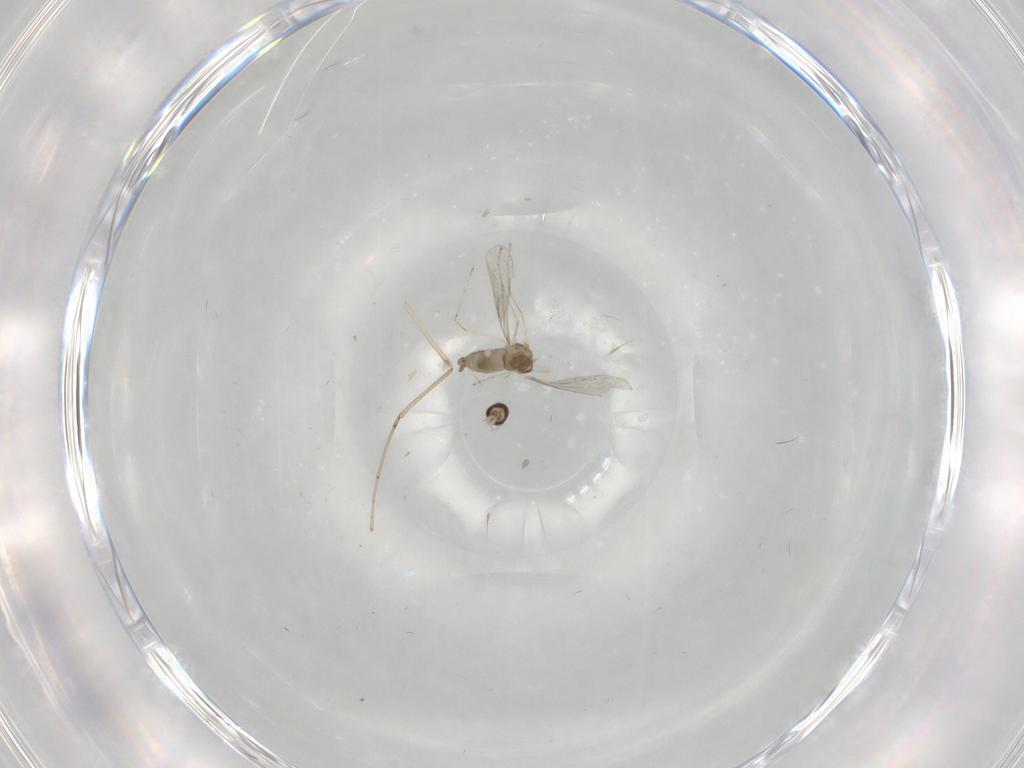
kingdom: Animalia
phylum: Arthropoda
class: Insecta
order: Diptera
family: Cecidomyiidae
